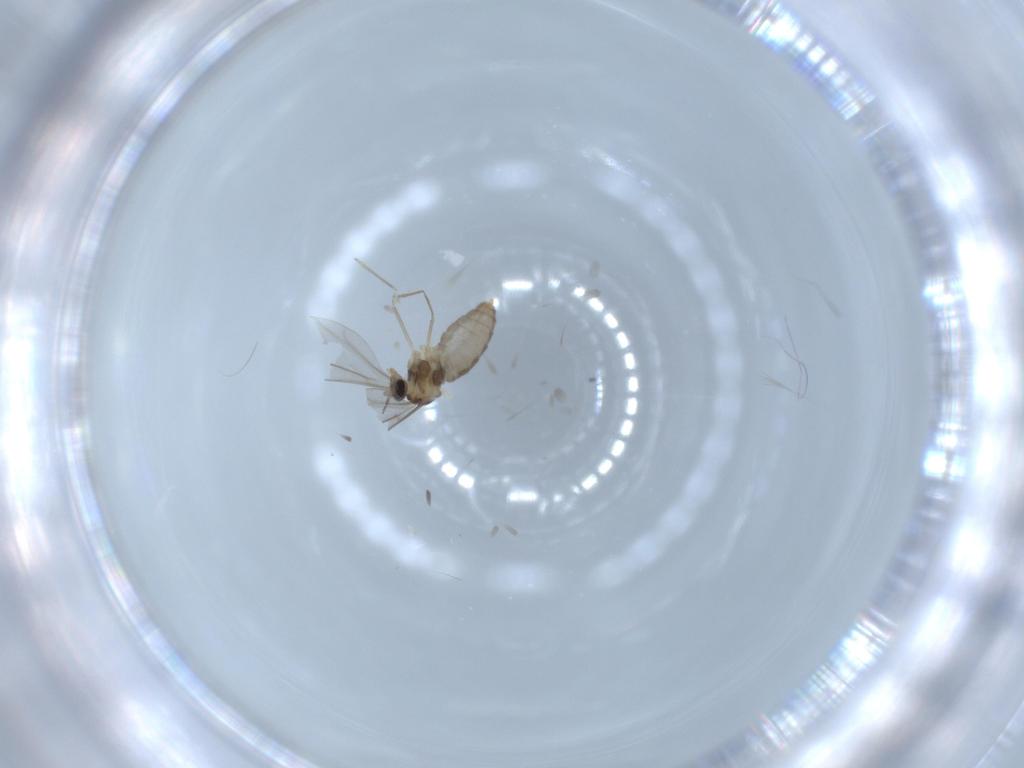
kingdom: Animalia
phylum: Arthropoda
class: Insecta
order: Diptera
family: Cecidomyiidae
